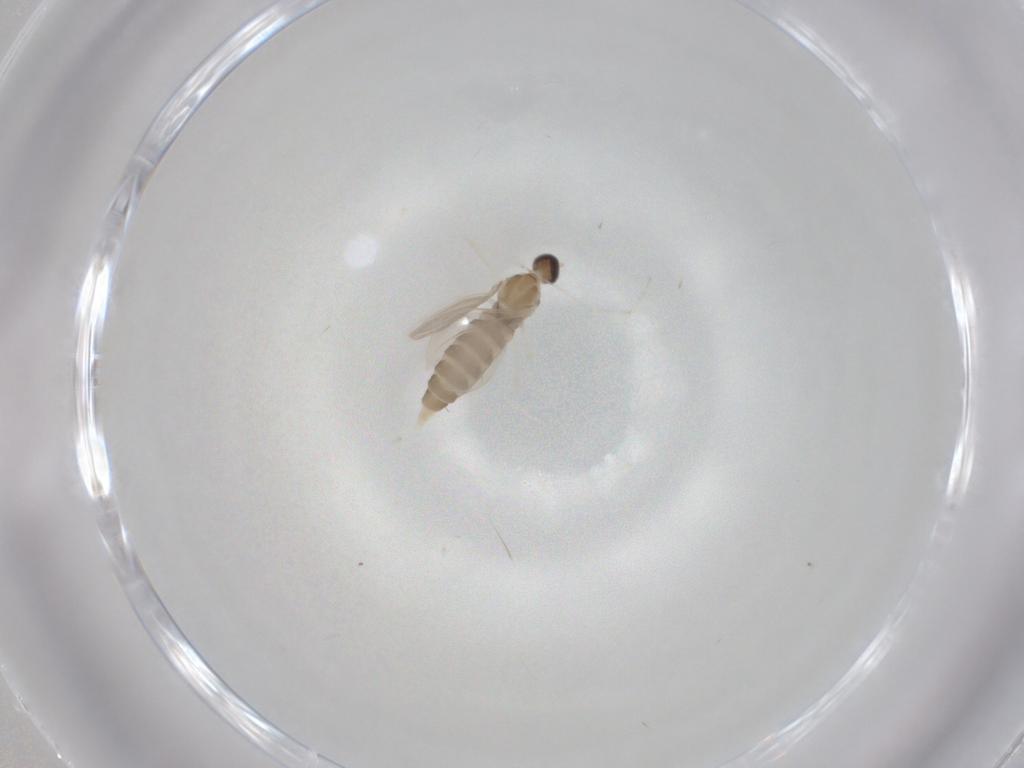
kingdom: Animalia
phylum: Arthropoda
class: Insecta
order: Diptera
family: Cecidomyiidae
